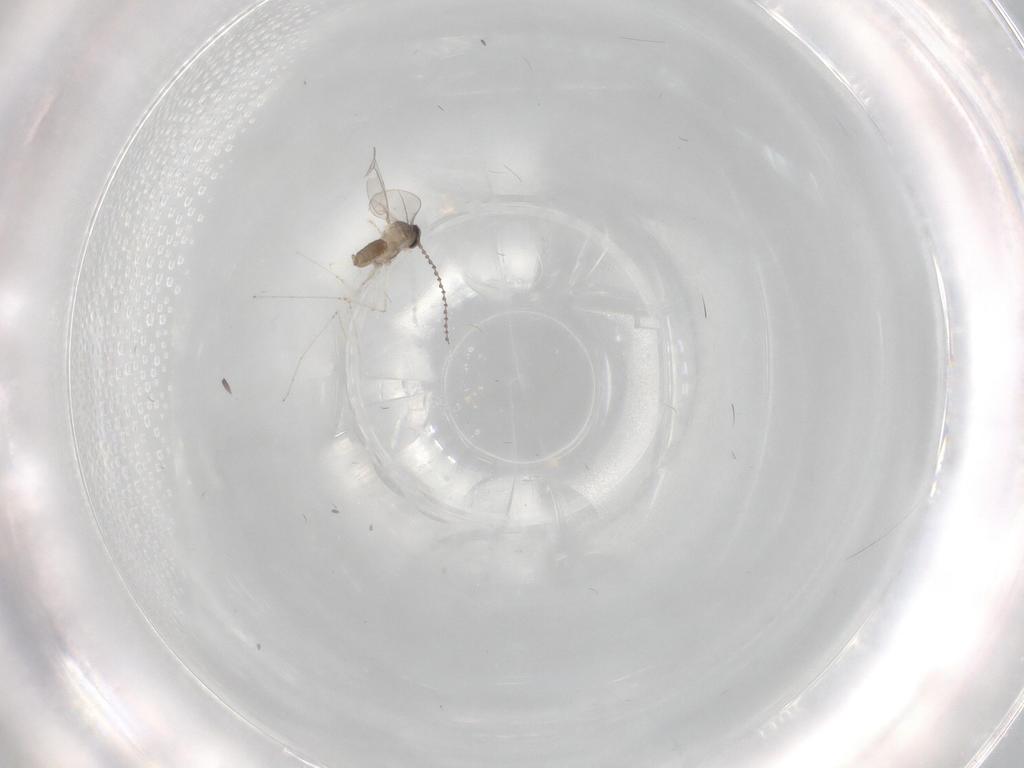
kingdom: Animalia
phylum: Arthropoda
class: Insecta
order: Diptera
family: Cecidomyiidae
